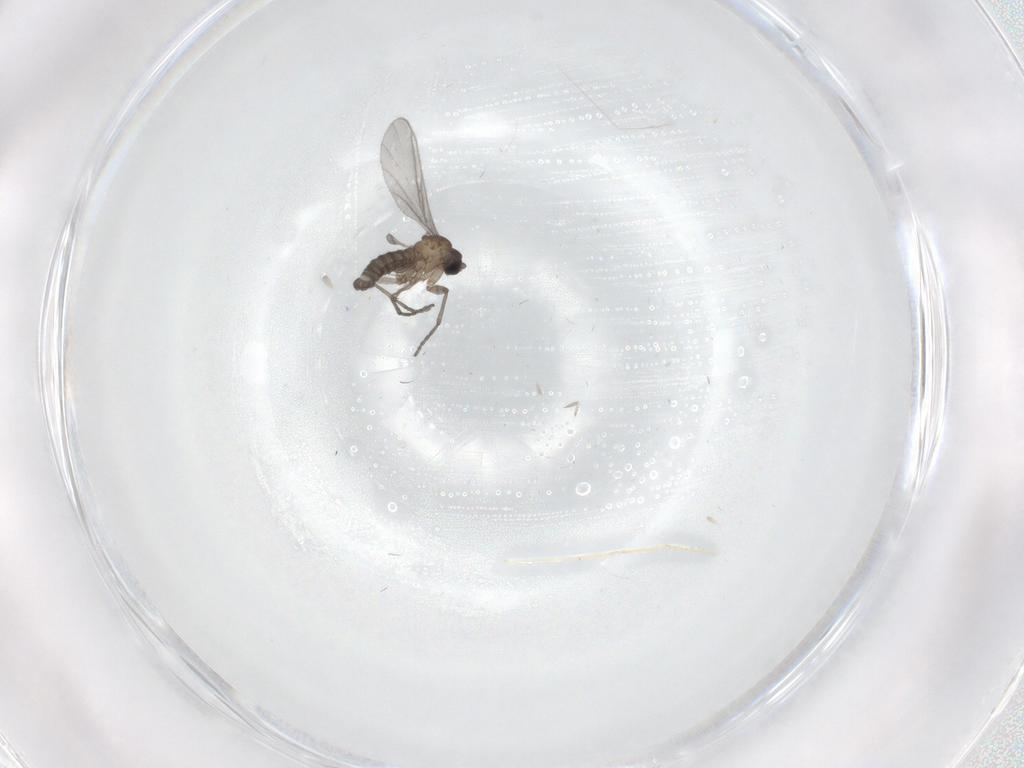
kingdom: Animalia
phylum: Arthropoda
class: Insecta
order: Diptera
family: Sciaridae
